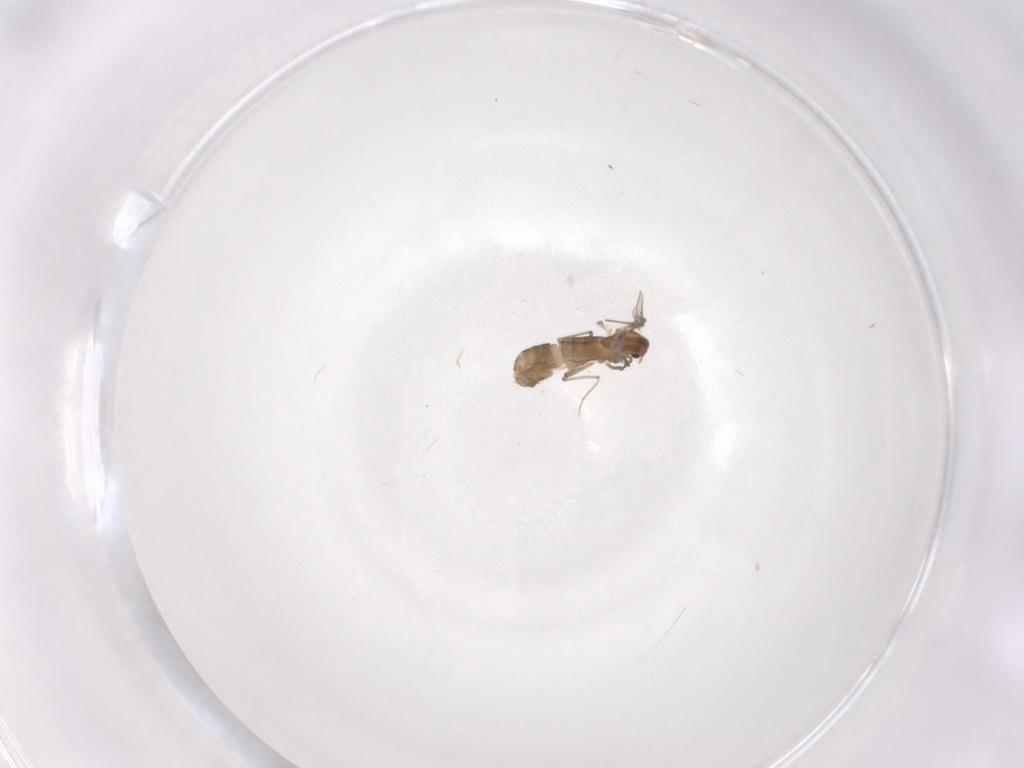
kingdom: Animalia
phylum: Arthropoda
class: Insecta
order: Diptera
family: Chironomidae
